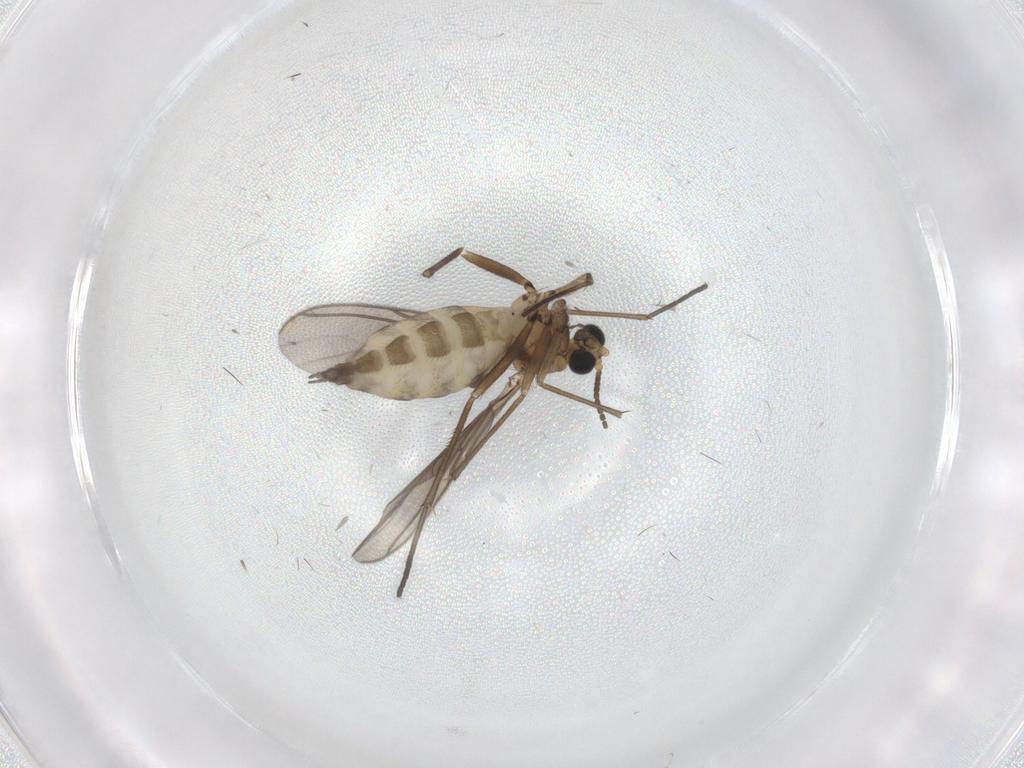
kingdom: Animalia
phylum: Arthropoda
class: Insecta
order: Diptera
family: Sciaridae
